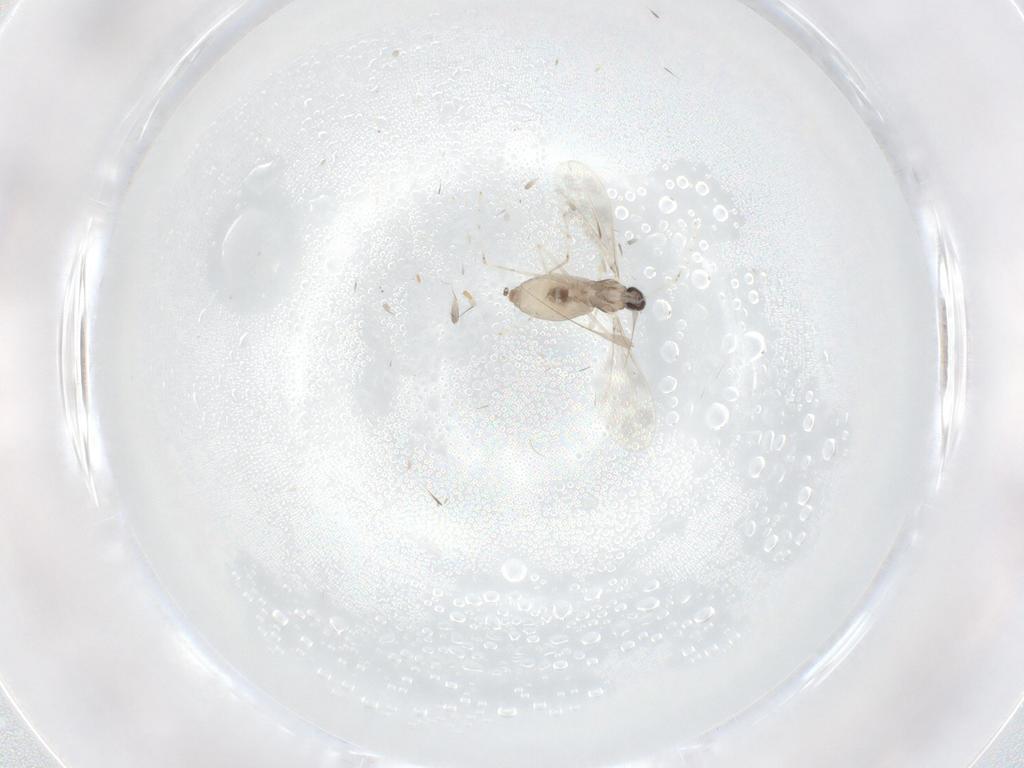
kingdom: Animalia
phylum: Arthropoda
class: Insecta
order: Diptera
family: Cecidomyiidae
